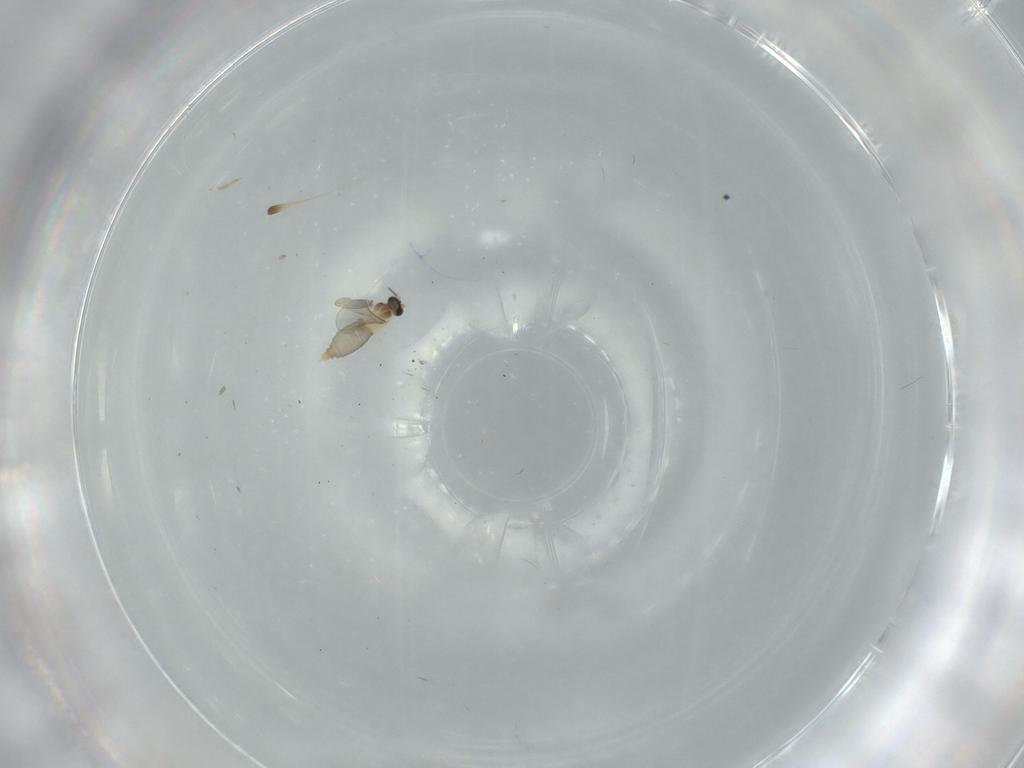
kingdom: Animalia
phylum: Arthropoda
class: Insecta
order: Diptera
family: Cecidomyiidae
